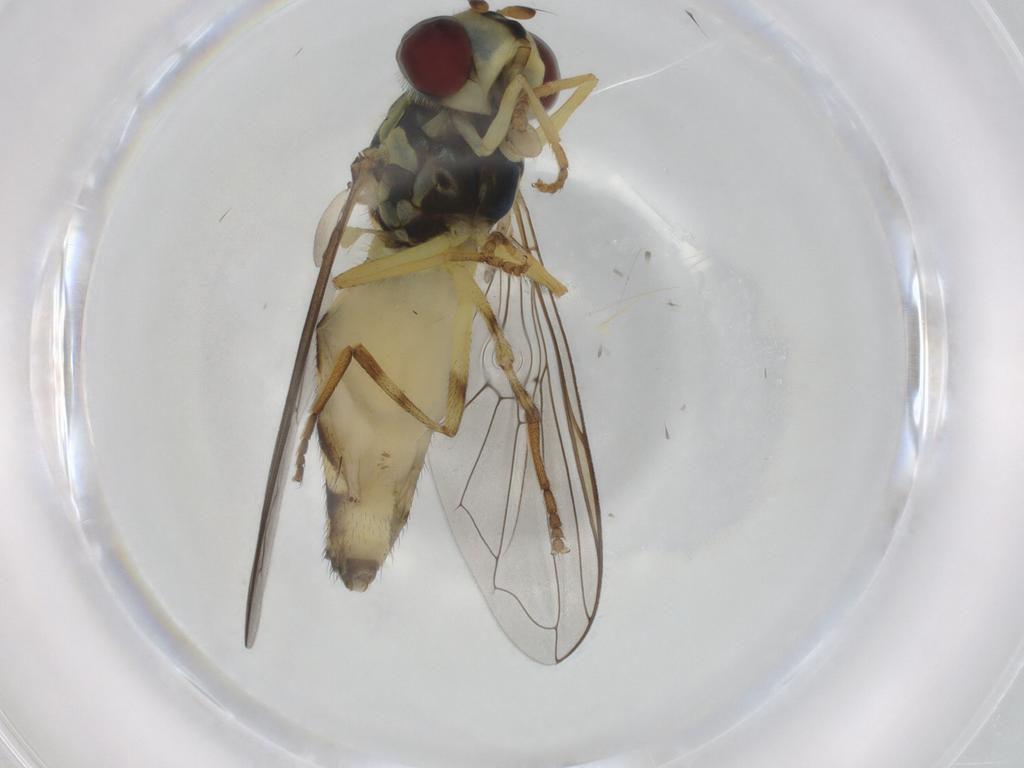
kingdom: Animalia
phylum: Arthropoda
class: Insecta
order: Diptera
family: Syrphidae
